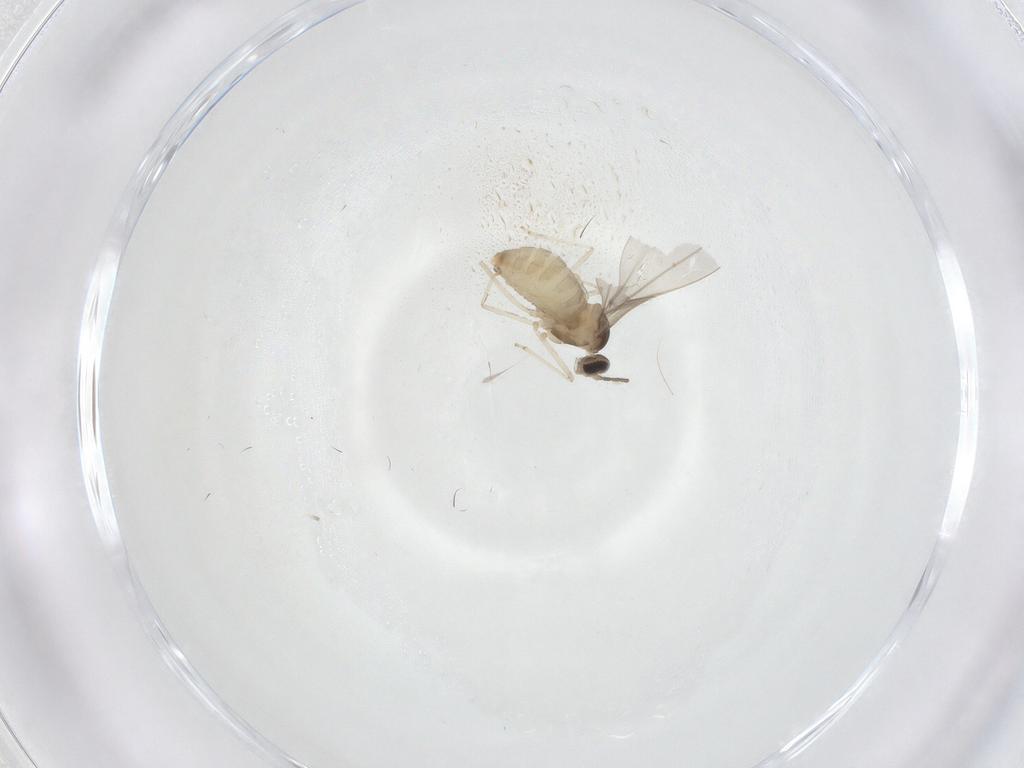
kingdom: Animalia
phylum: Arthropoda
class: Insecta
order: Diptera
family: Cecidomyiidae
